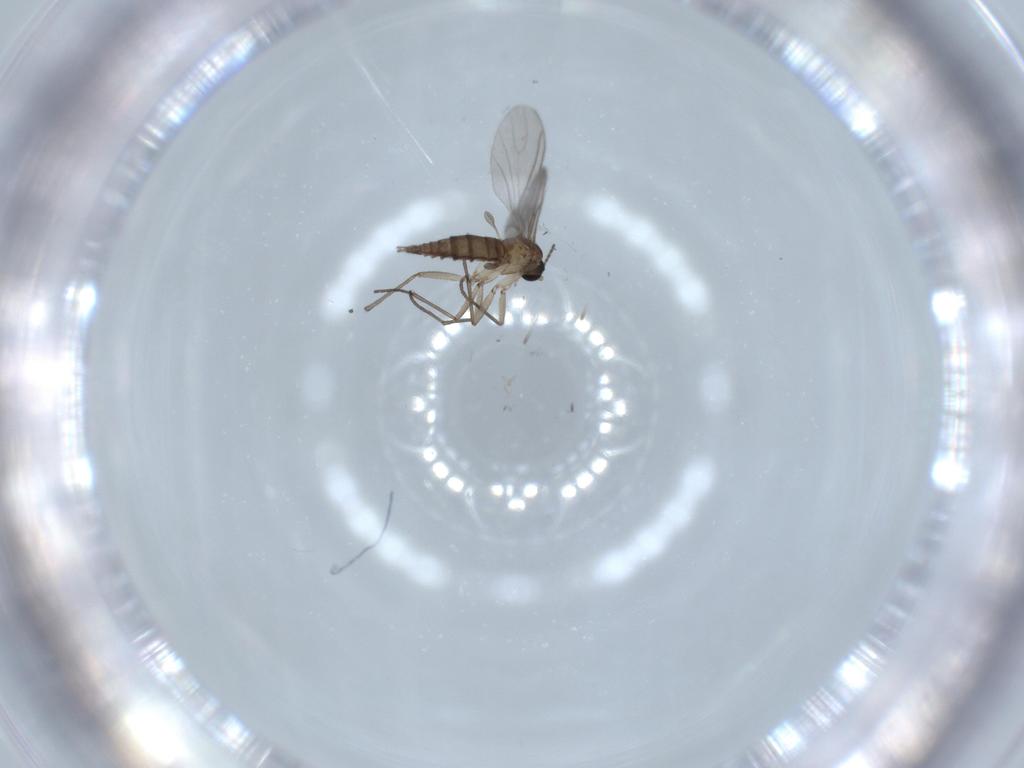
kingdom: Animalia
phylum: Arthropoda
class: Insecta
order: Diptera
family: Sciaridae
